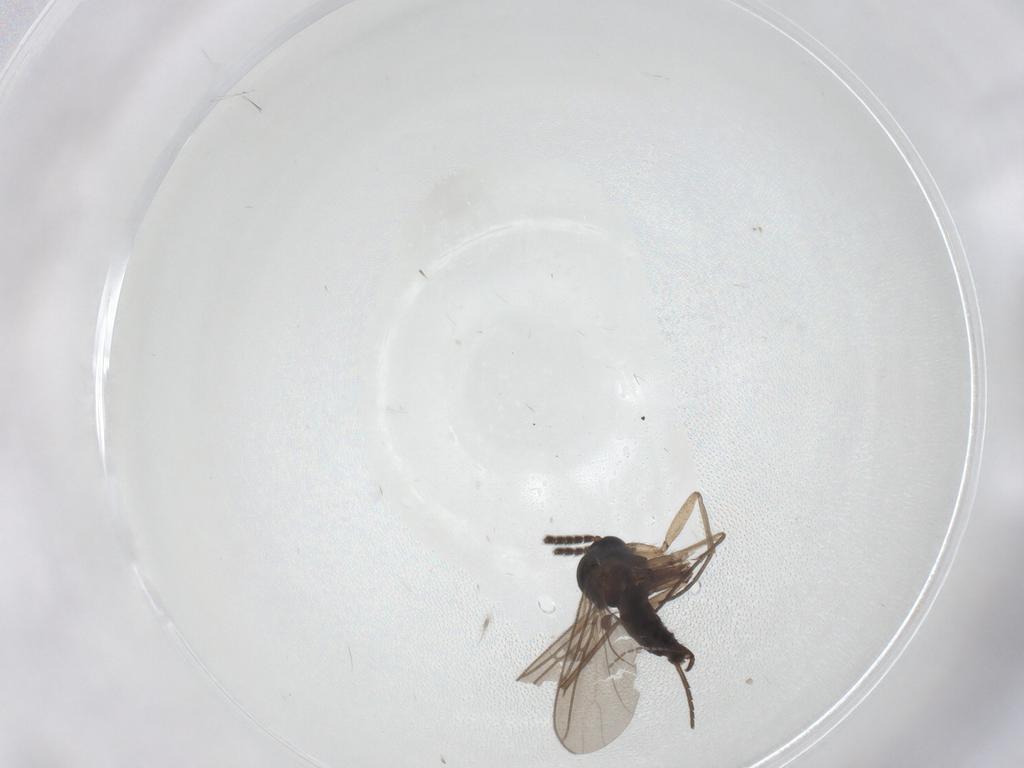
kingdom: Animalia
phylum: Arthropoda
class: Insecta
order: Diptera
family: Sciaridae
